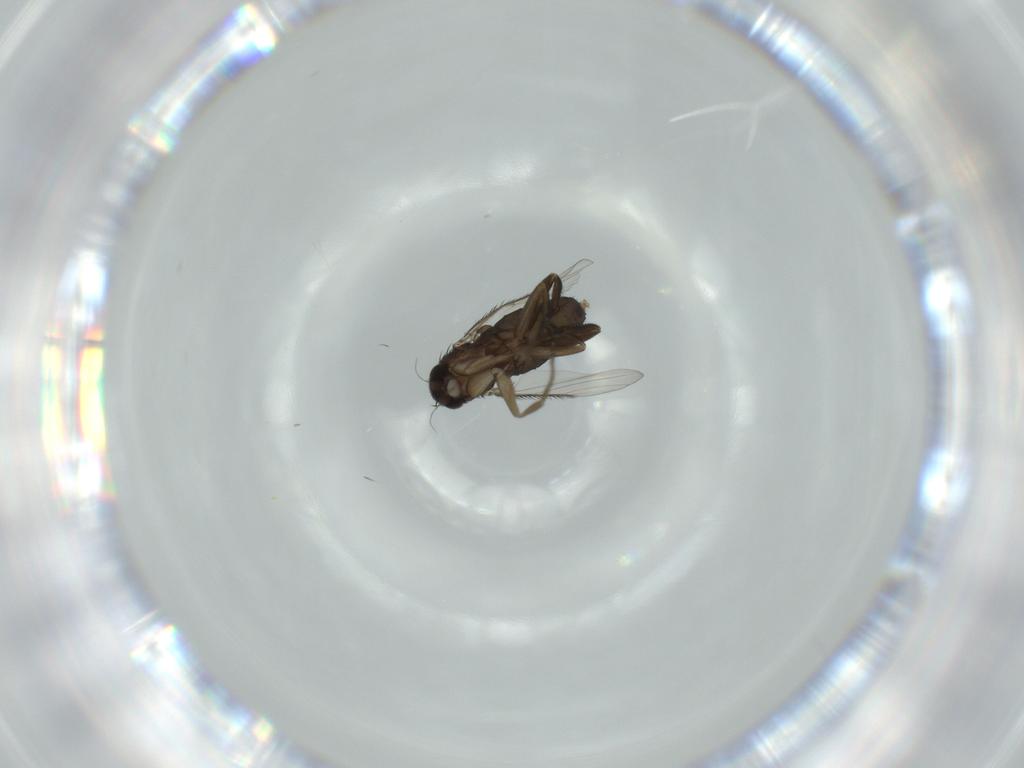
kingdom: Animalia
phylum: Arthropoda
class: Insecta
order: Diptera
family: Phoridae
